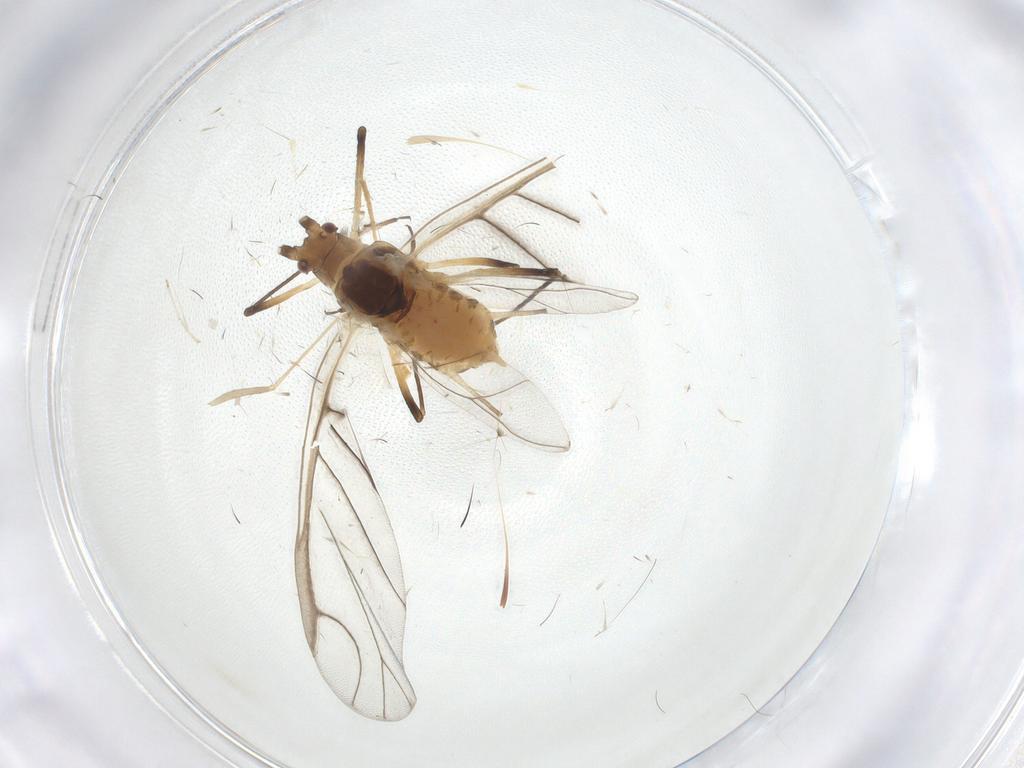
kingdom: Animalia
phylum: Arthropoda
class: Insecta
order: Hemiptera
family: Aphididae
